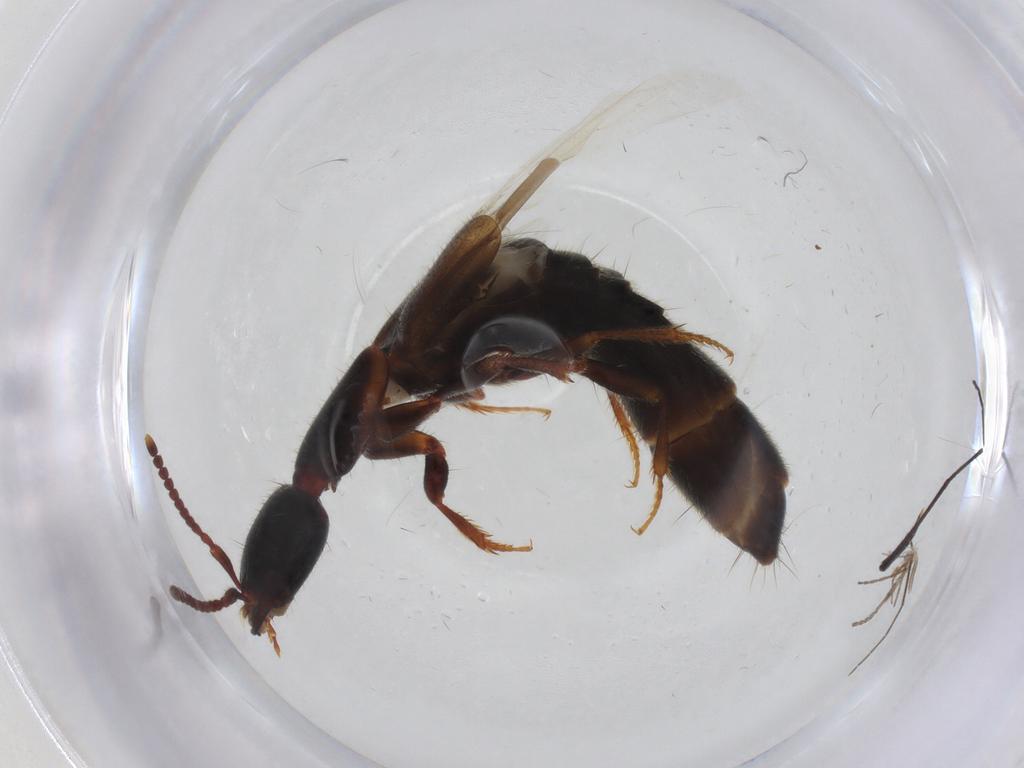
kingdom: Animalia
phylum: Arthropoda
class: Insecta
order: Coleoptera
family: Staphylinidae
